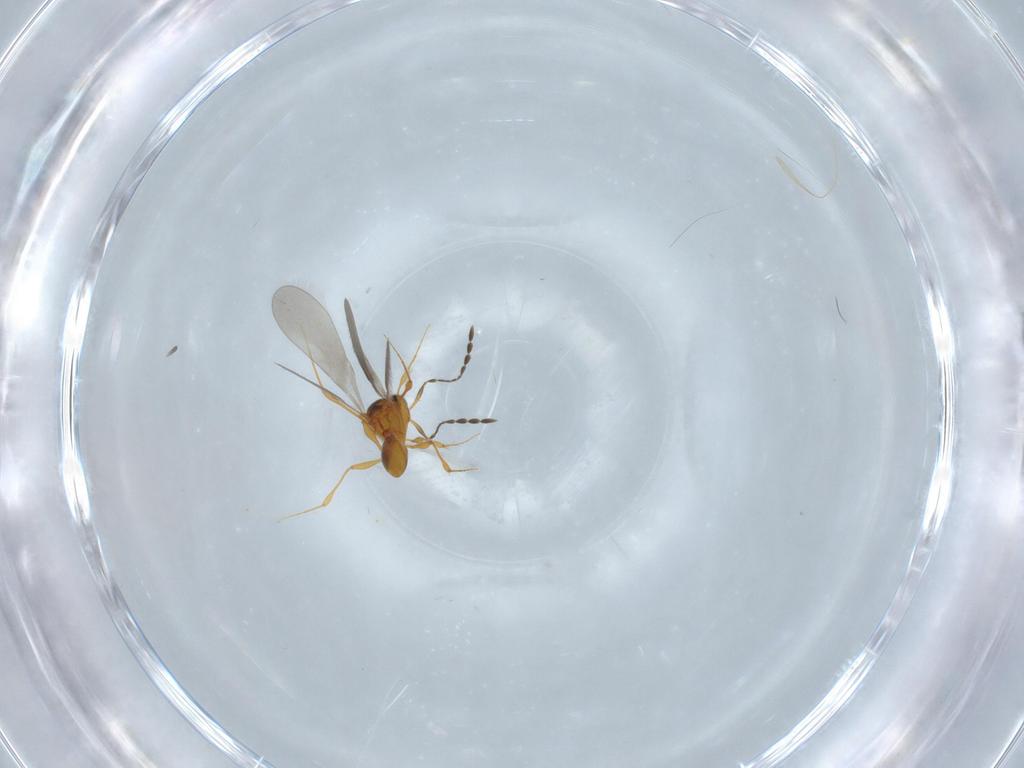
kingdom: Animalia
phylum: Arthropoda
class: Insecta
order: Hymenoptera
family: Platygastridae
